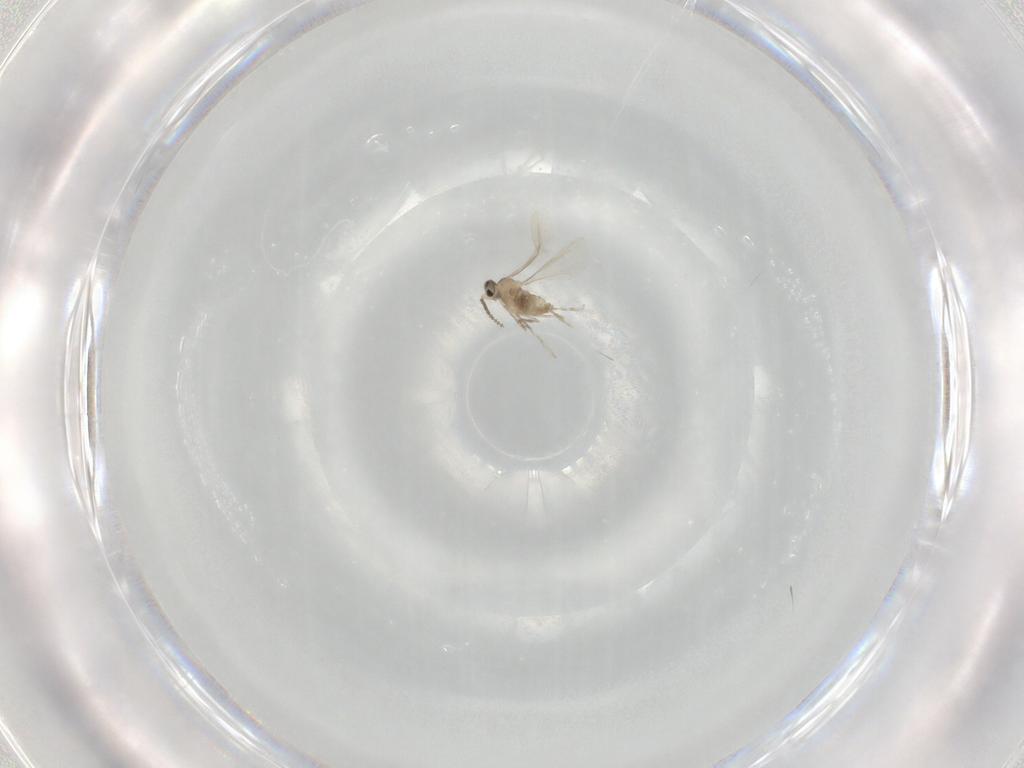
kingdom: Animalia
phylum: Arthropoda
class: Insecta
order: Diptera
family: Cecidomyiidae
